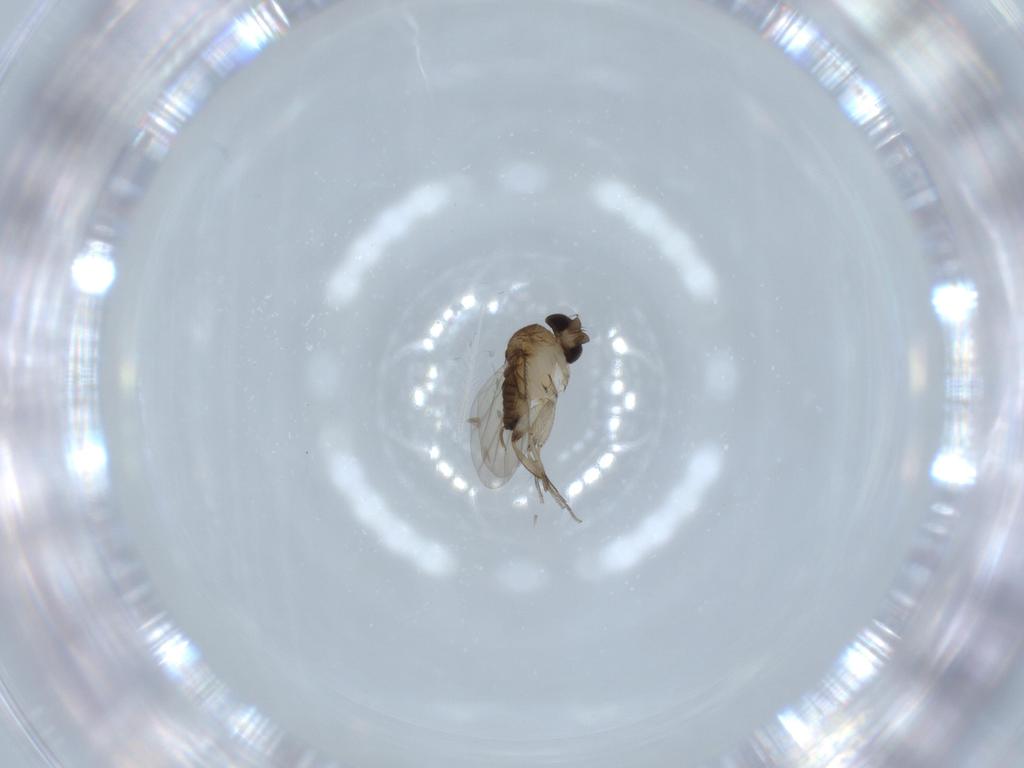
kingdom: Animalia
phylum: Arthropoda
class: Insecta
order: Diptera
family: Phoridae
